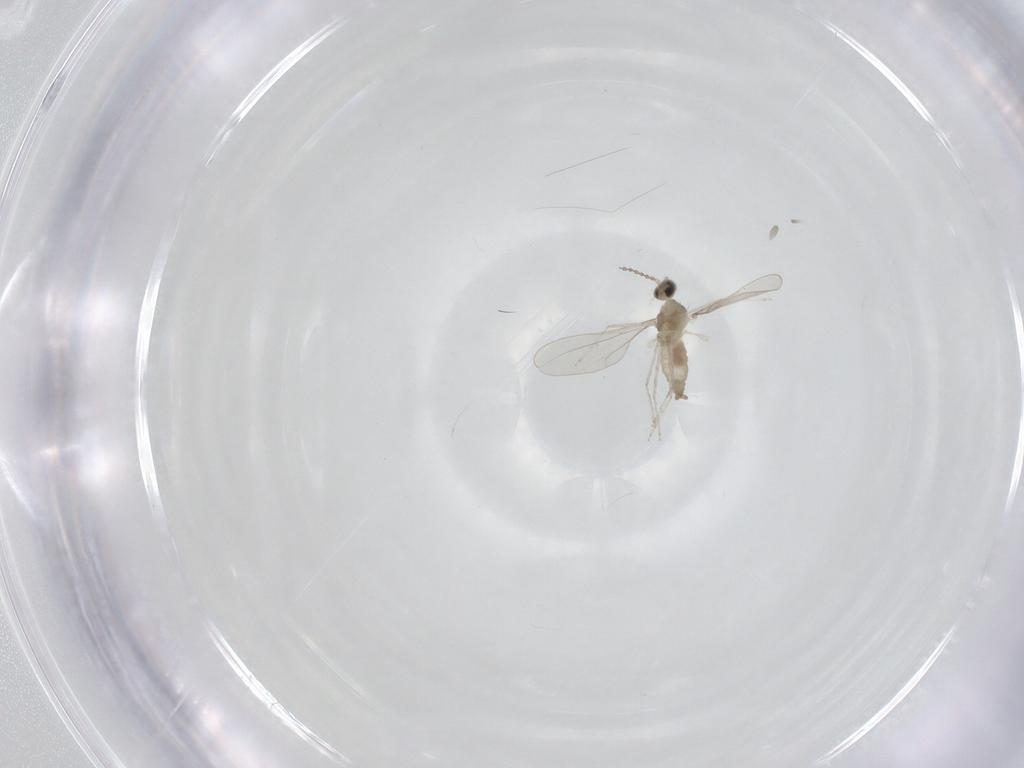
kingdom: Animalia
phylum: Arthropoda
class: Insecta
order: Diptera
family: Cecidomyiidae
